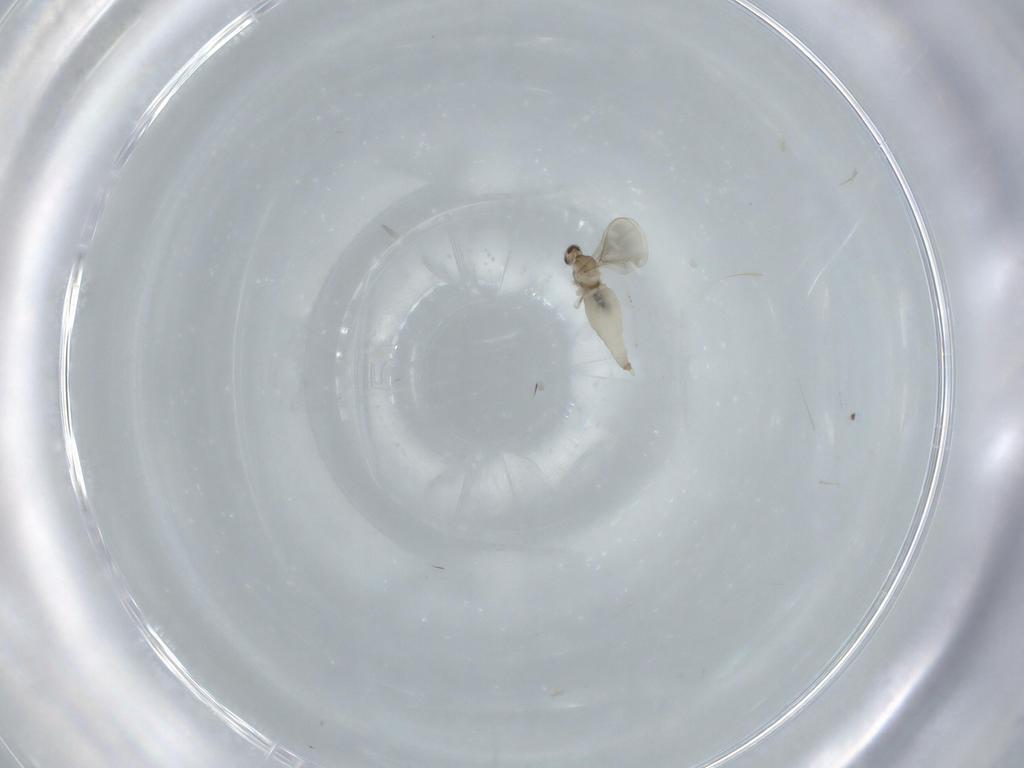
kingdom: Animalia
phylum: Arthropoda
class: Insecta
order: Diptera
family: Cecidomyiidae
